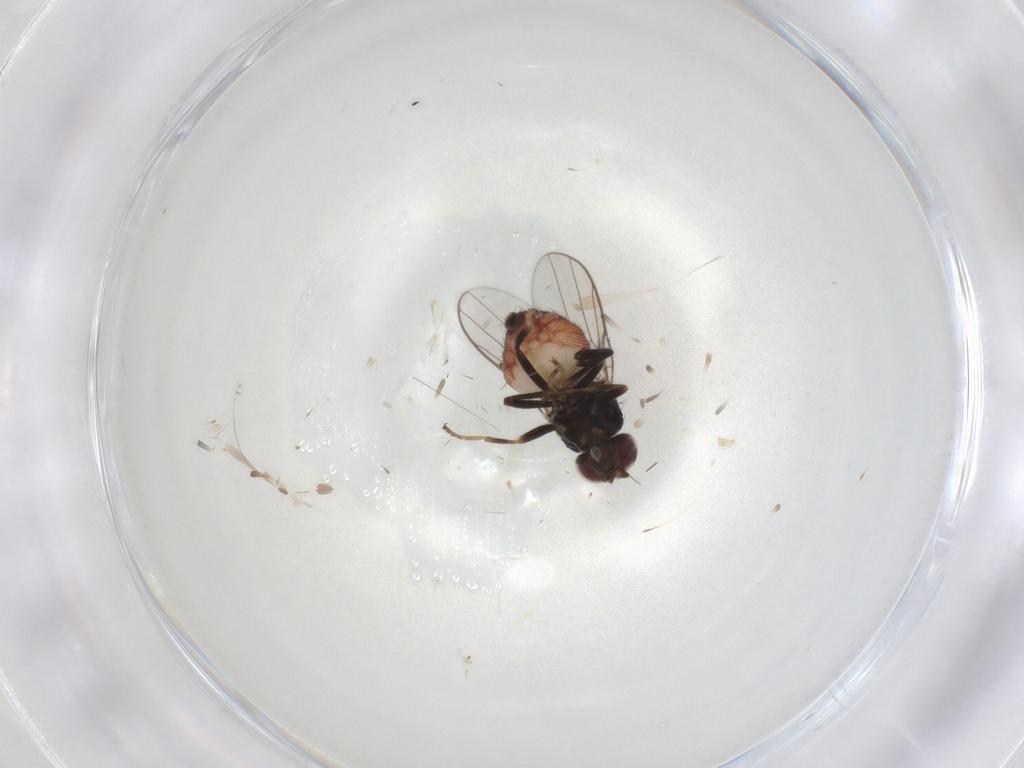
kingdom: Animalia
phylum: Arthropoda
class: Insecta
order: Diptera
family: Chloropidae
